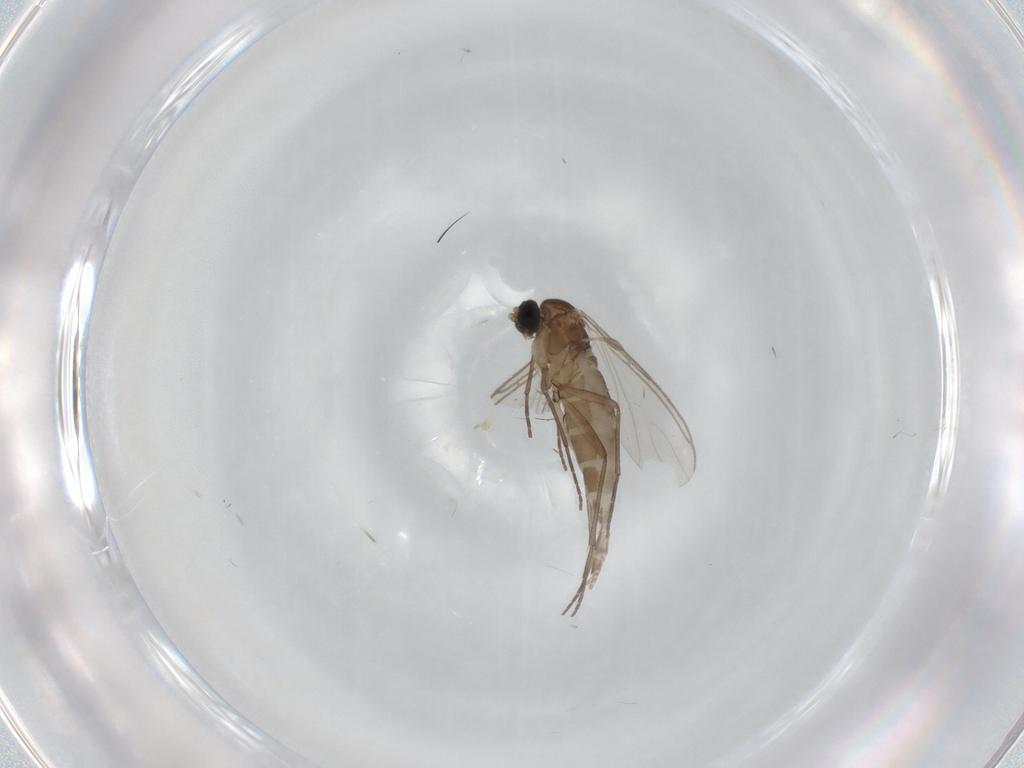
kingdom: Animalia
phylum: Arthropoda
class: Insecta
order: Diptera
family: Sciaridae
